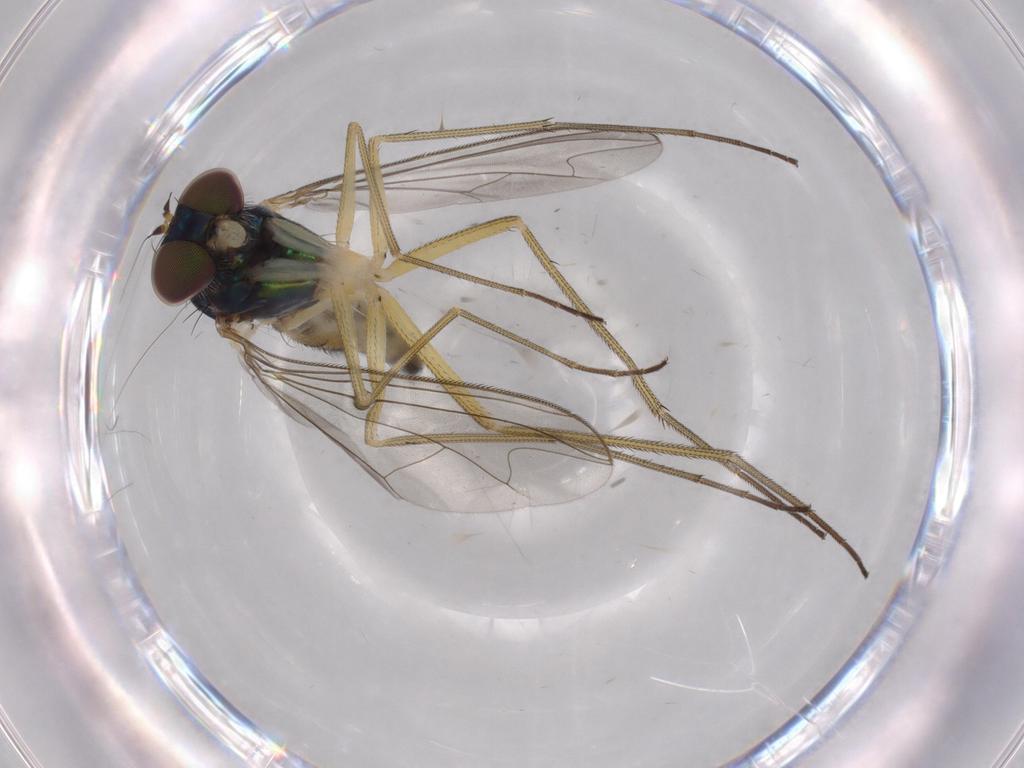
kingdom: Animalia
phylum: Arthropoda
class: Insecta
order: Diptera
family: Dolichopodidae
